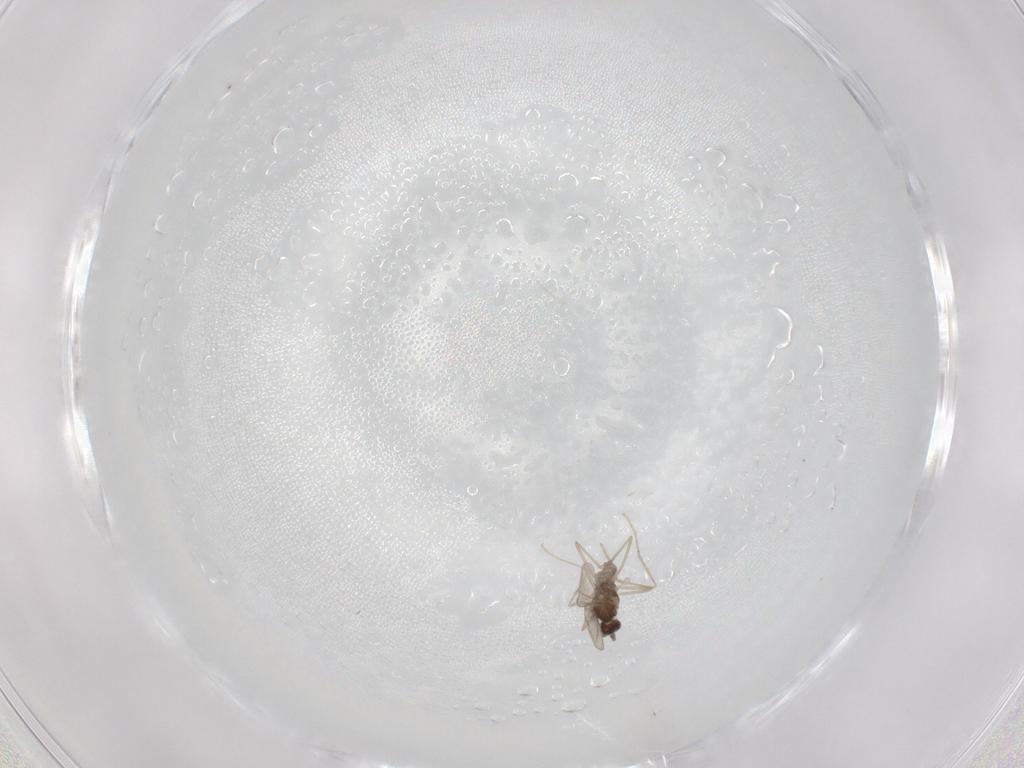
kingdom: Animalia
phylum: Arthropoda
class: Insecta
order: Diptera
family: Cecidomyiidae
